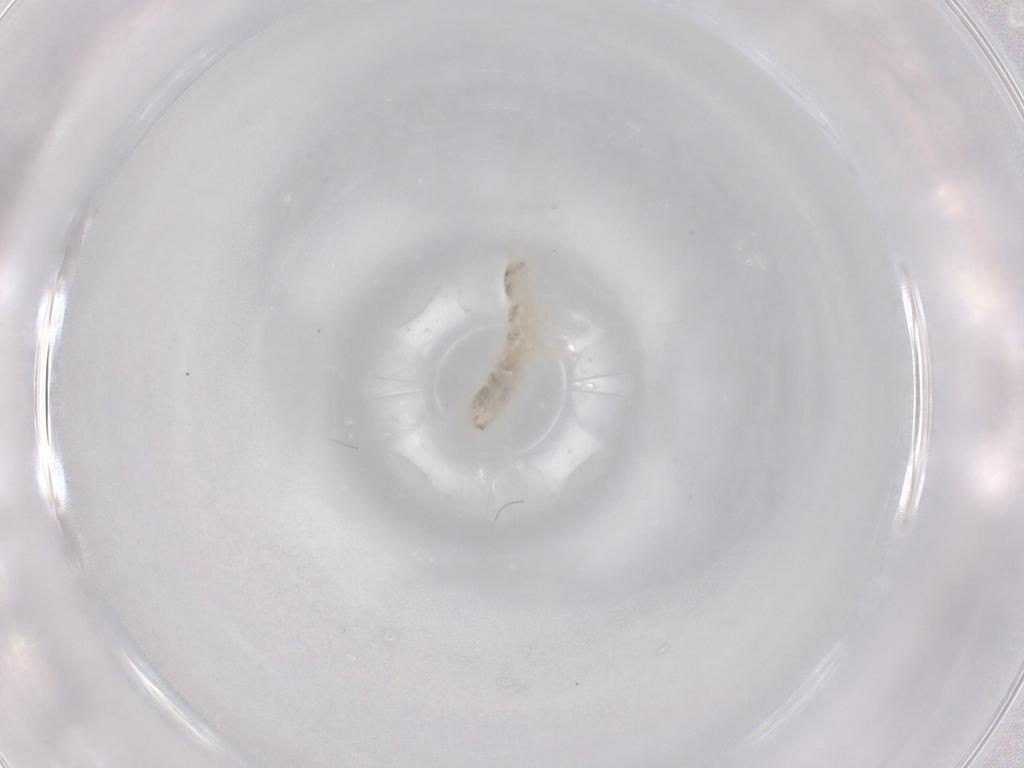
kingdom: Animalia
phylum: Arthropoda
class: Collembola
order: Entomobryomorpha
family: Isotomidae
